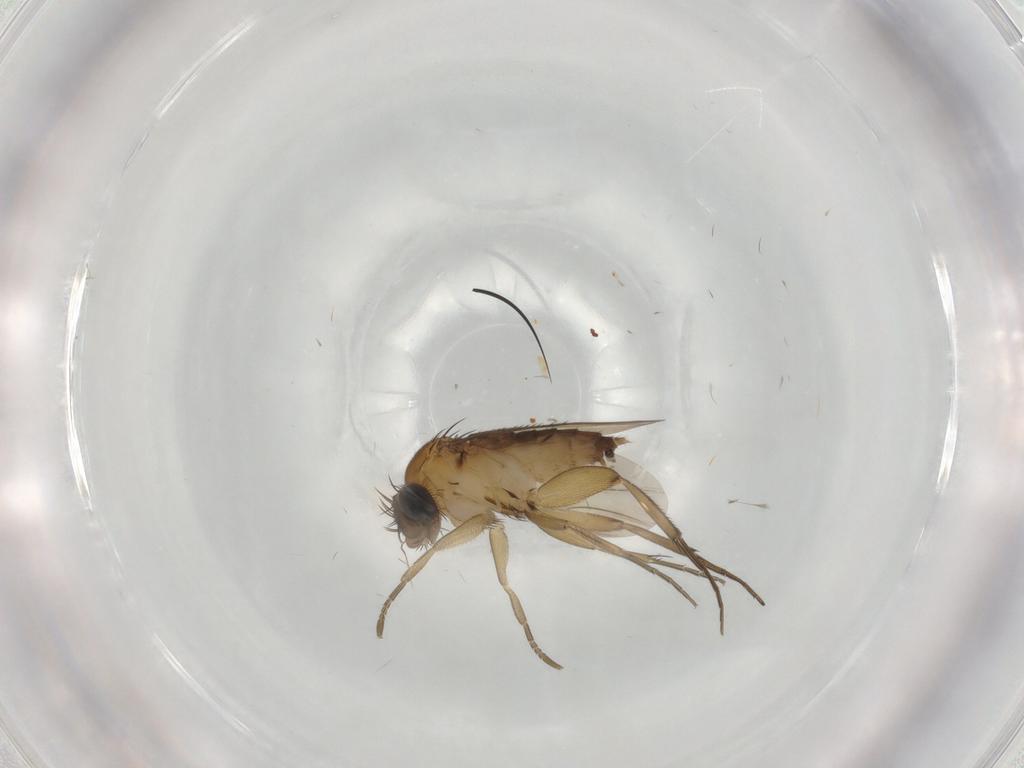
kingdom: Animalia
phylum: Arthropoda
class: Insecta
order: Diptera
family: Phoridae
